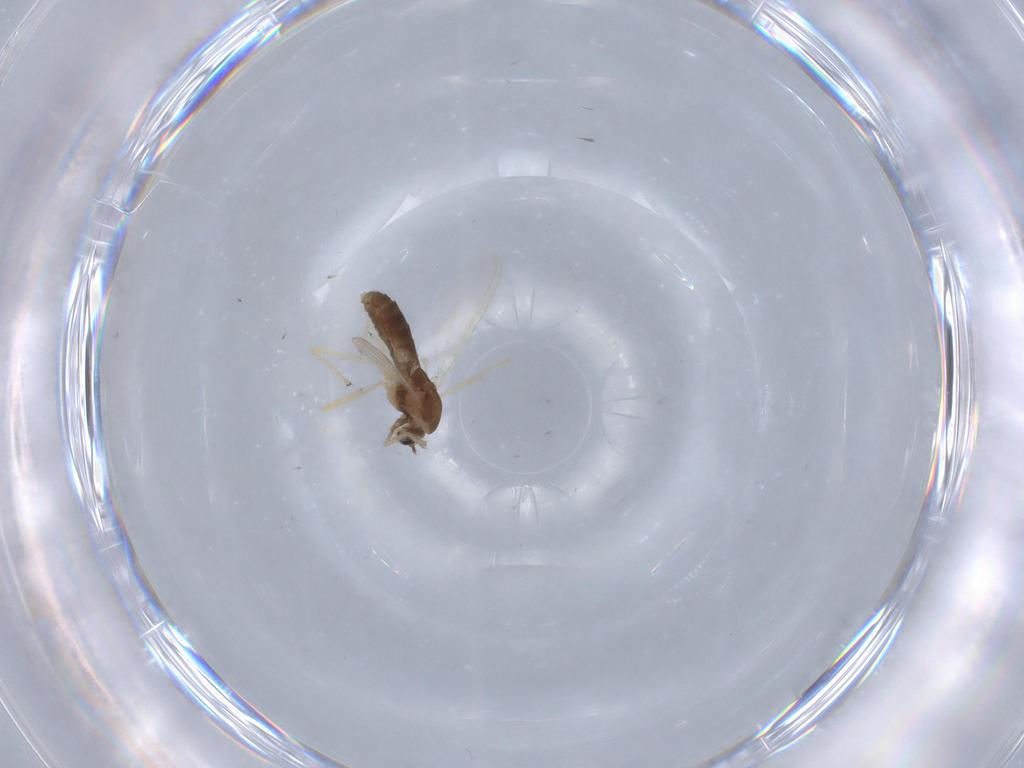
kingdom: Animalia
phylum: Arthropoda
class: Insecta
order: Diptera
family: Chironomidae
